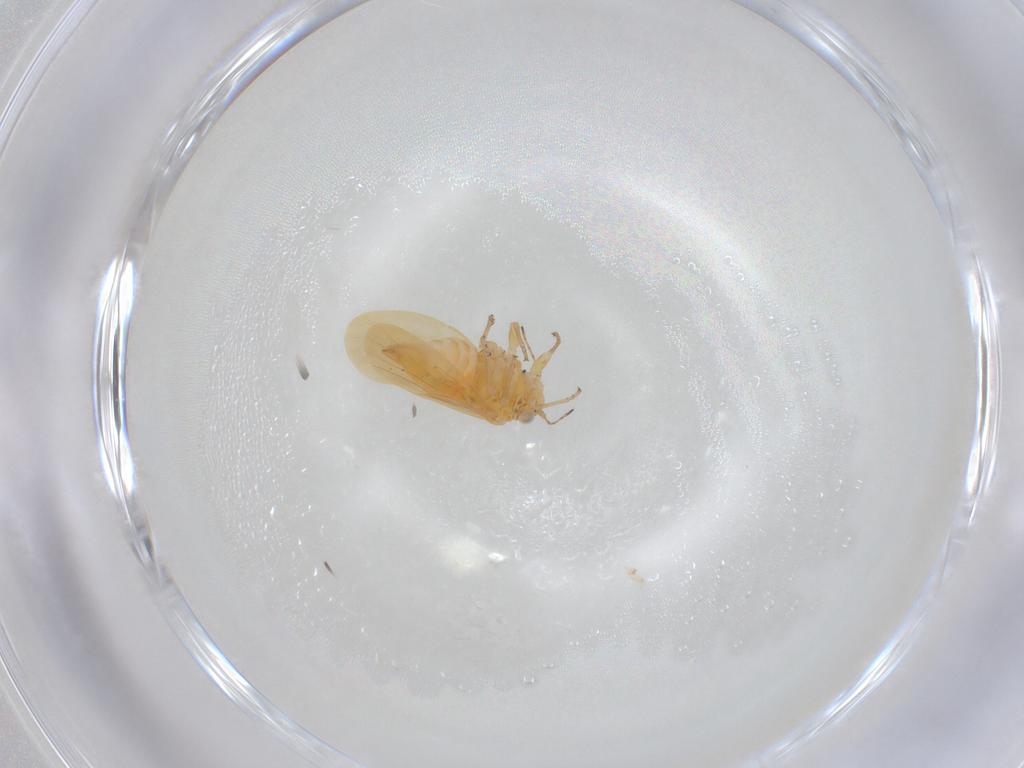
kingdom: Animalia
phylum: Arthropoda
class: Insecta
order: Hemiptera
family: Liviidae
